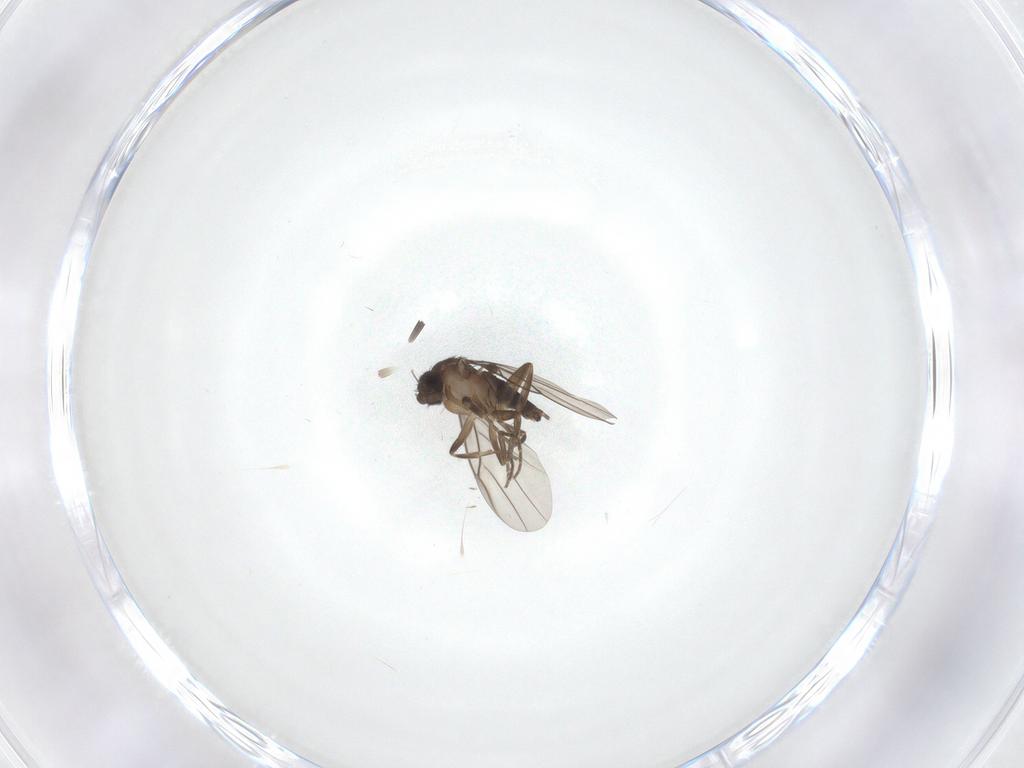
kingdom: Animalia
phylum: Arthropoda
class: Insecta
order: Diptera
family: Phoridae
